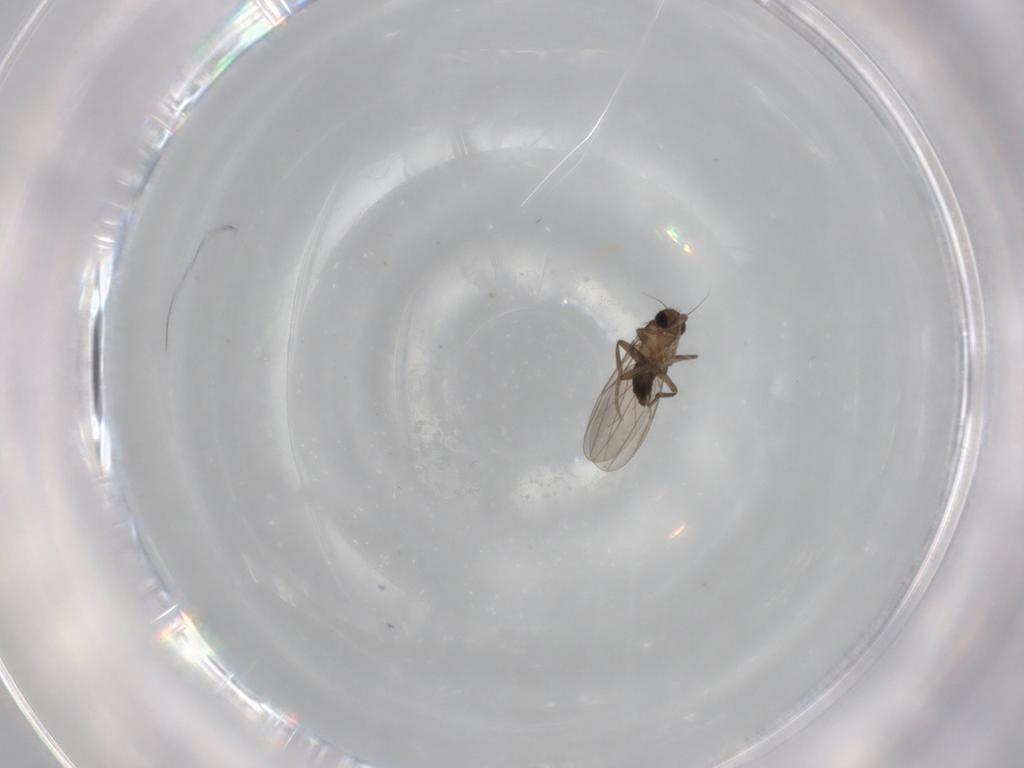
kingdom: Animalia
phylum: Arthropoda
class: Insecta
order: Diptera
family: Phoridae
